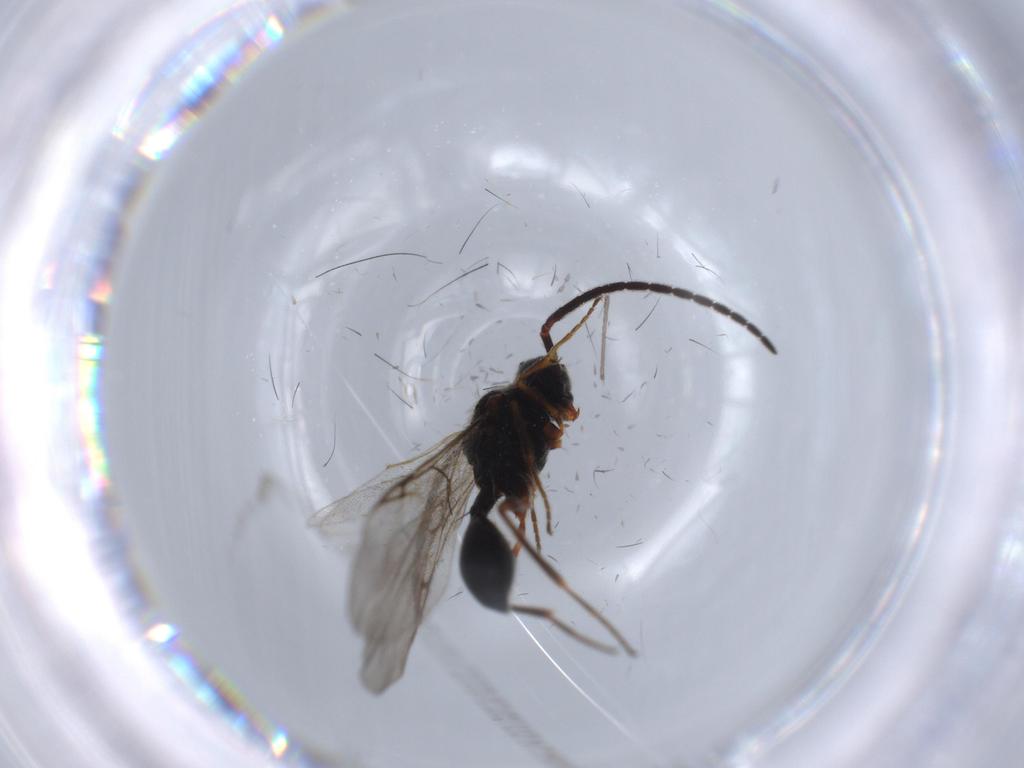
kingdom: Animalia
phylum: Arthropoda
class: Insecta
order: Hymenoptera
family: Diapriidae
